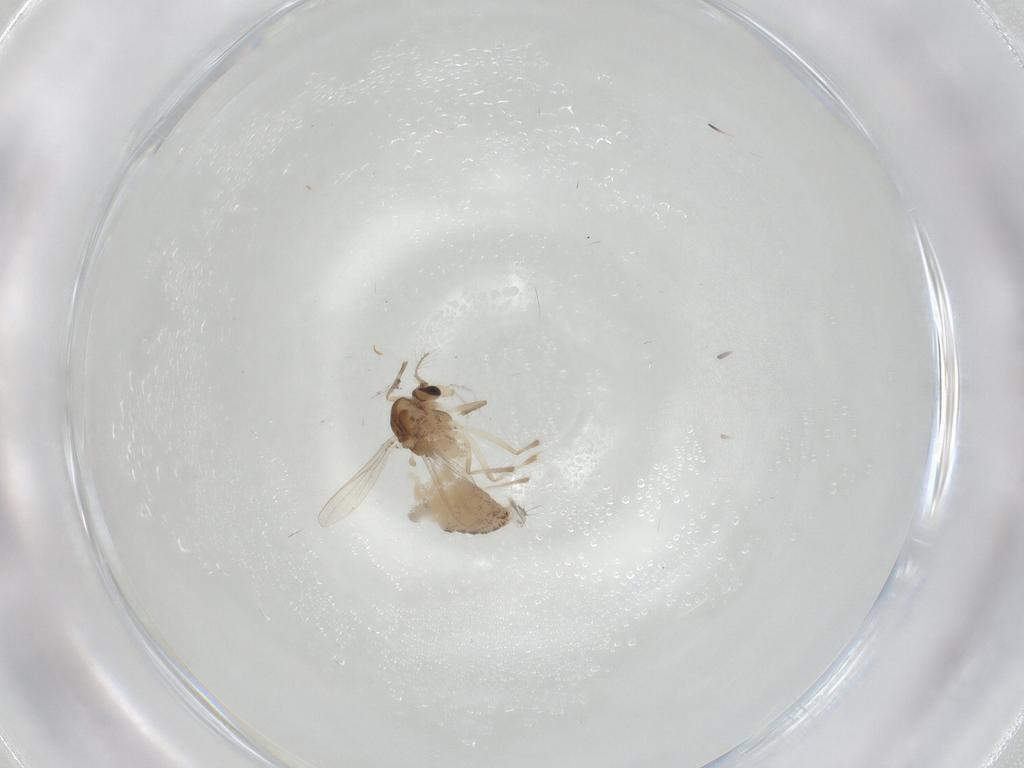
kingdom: Animalia
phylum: Arthropoda
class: Insecta
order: Diptera
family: Chironomidae
